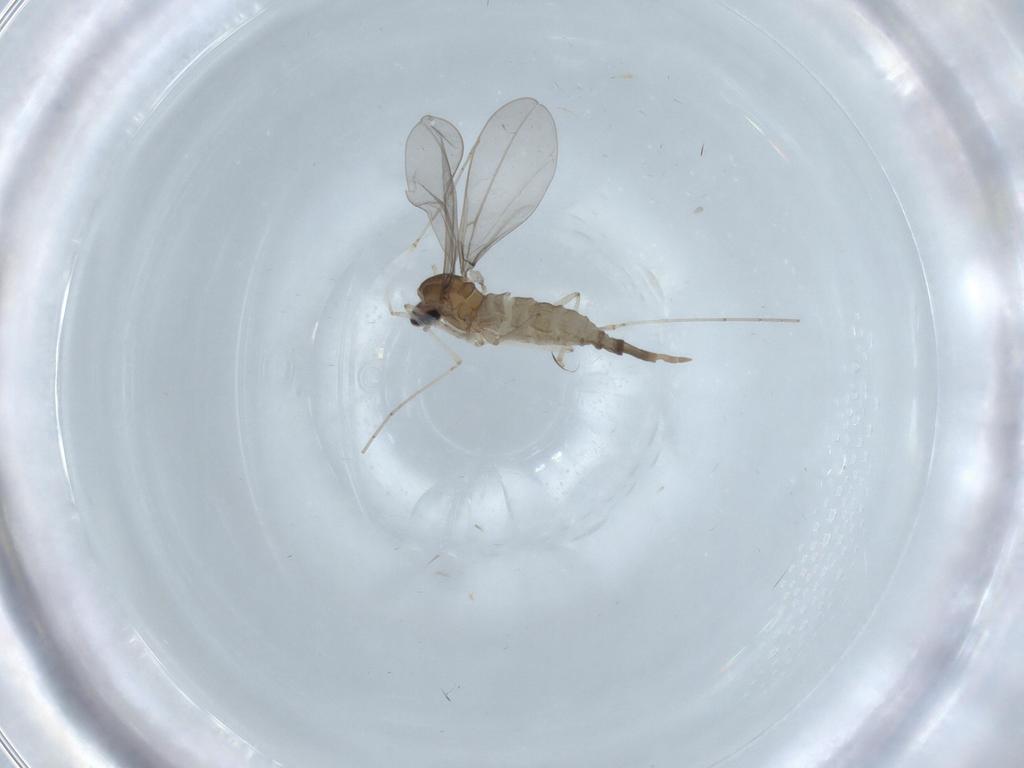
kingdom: Animalia
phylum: Arthropoda
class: Insecta
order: Diptera
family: Cecidomyiidae
